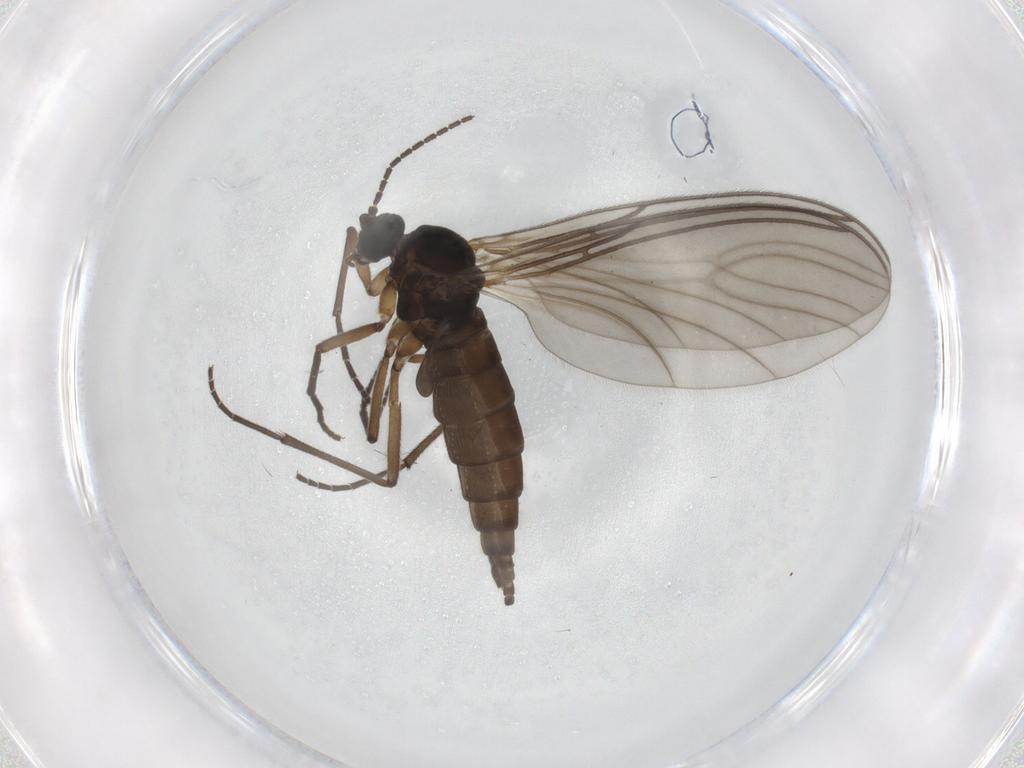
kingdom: Animalia
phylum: Arthropoda
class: Insecta
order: Diptera
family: Sciaridae
